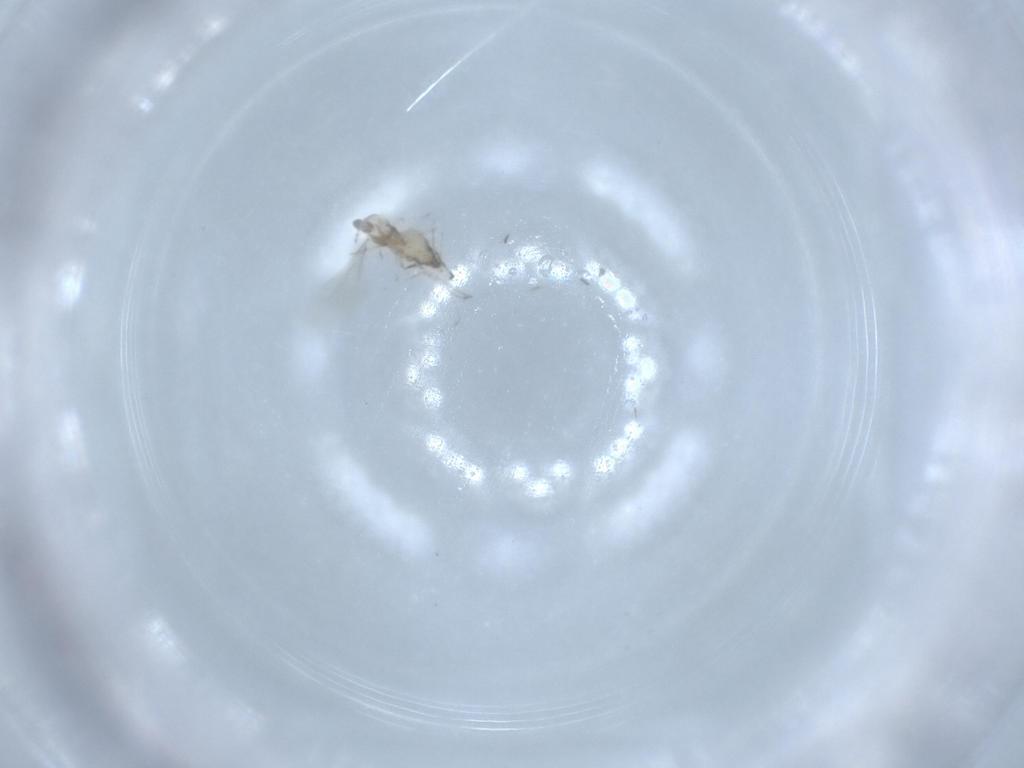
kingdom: Animalia
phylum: Arthropoda
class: Insecta
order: Diptera
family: Cecidomyiidae
